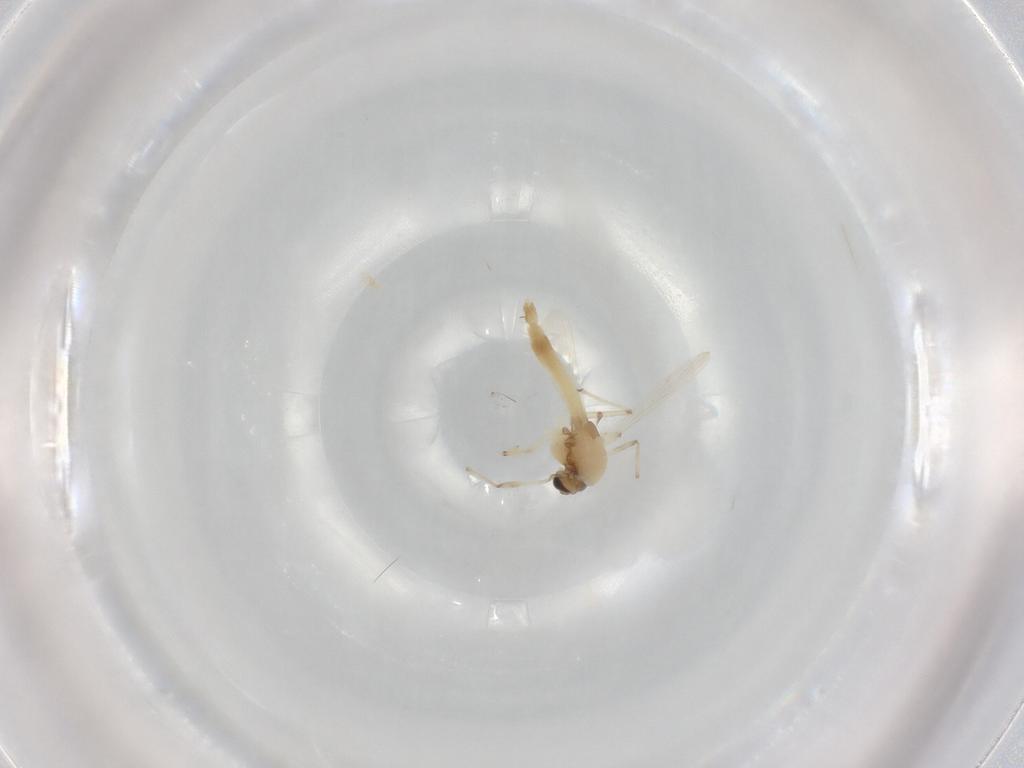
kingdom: Animalia
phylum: Arthropoda
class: Insecta
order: Diptera
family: Chironomidae
